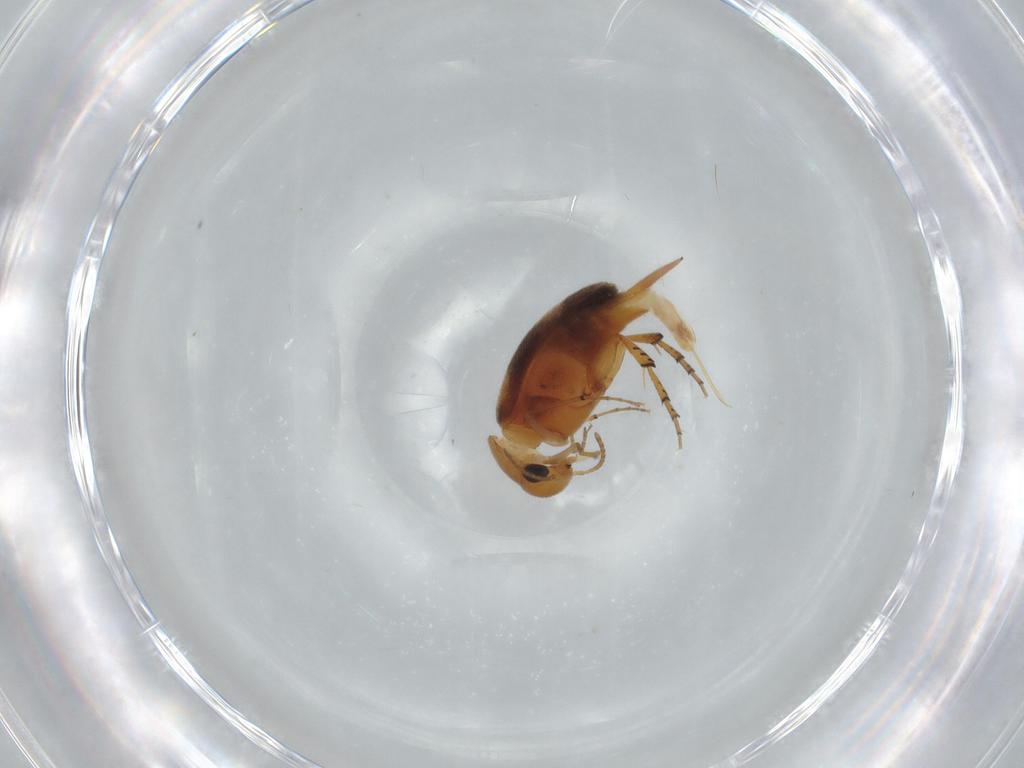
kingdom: Animalia
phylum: Arthropoda
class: Insecta
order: Coleoptera
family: Mordellidae
